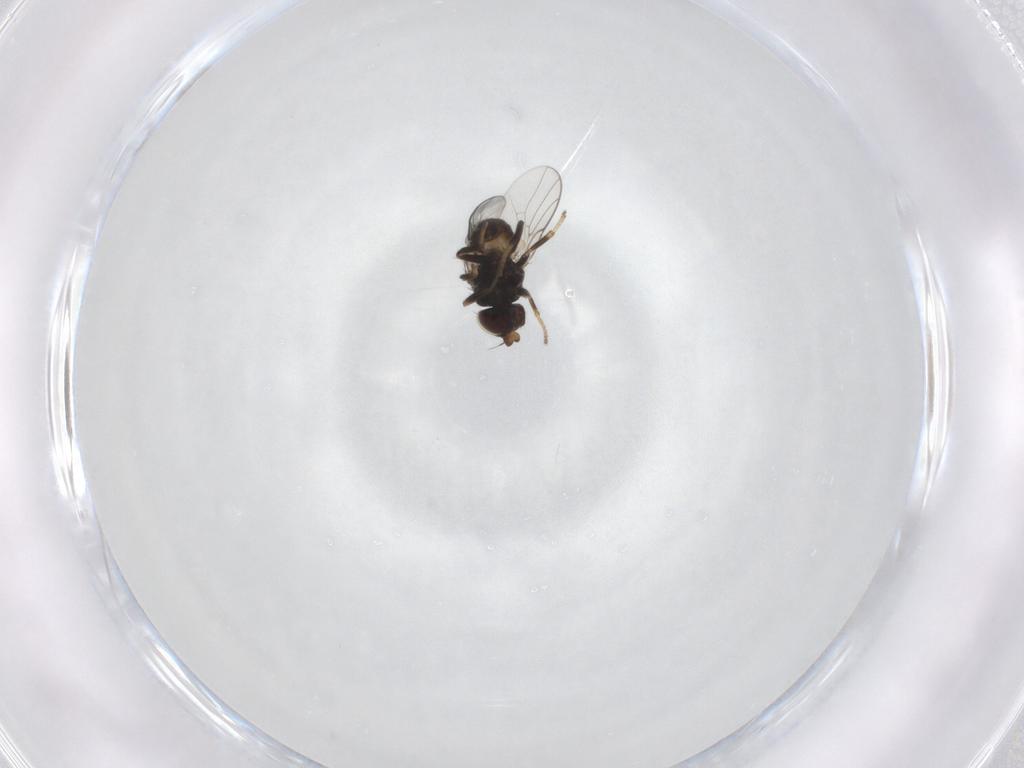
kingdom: Animalia
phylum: Arthropoda
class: Insecta
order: Diptera
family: Chloropidae
